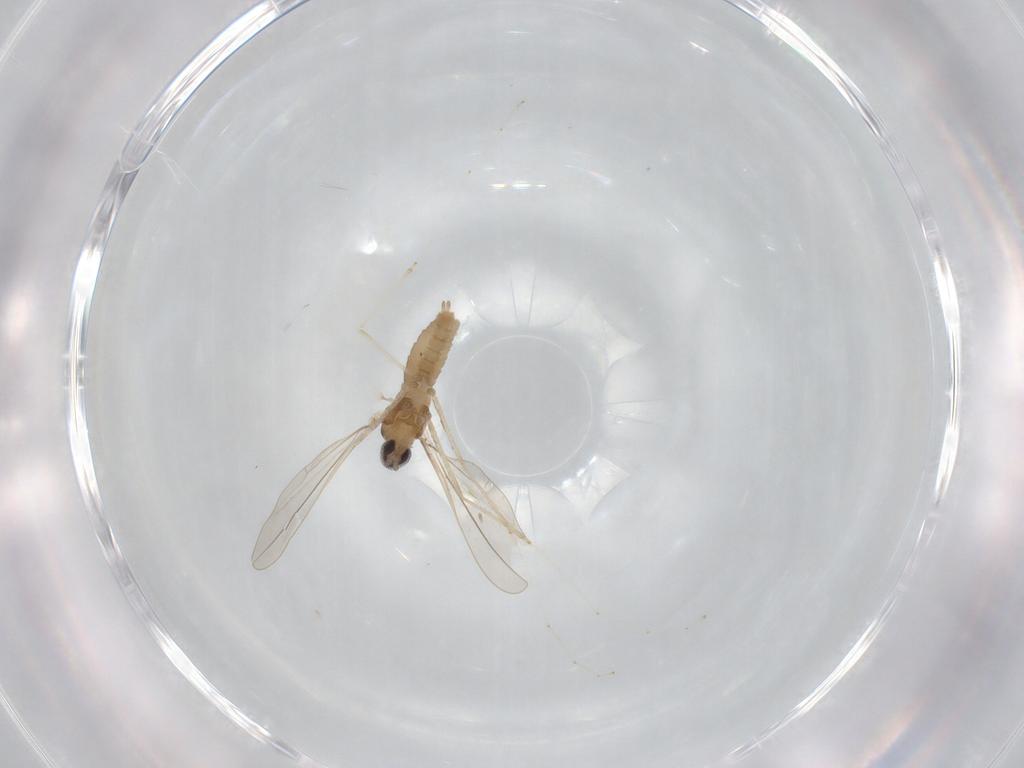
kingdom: Animalia
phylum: Arthropoda
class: Insecta
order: Diptera
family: Cecidomyiidae
